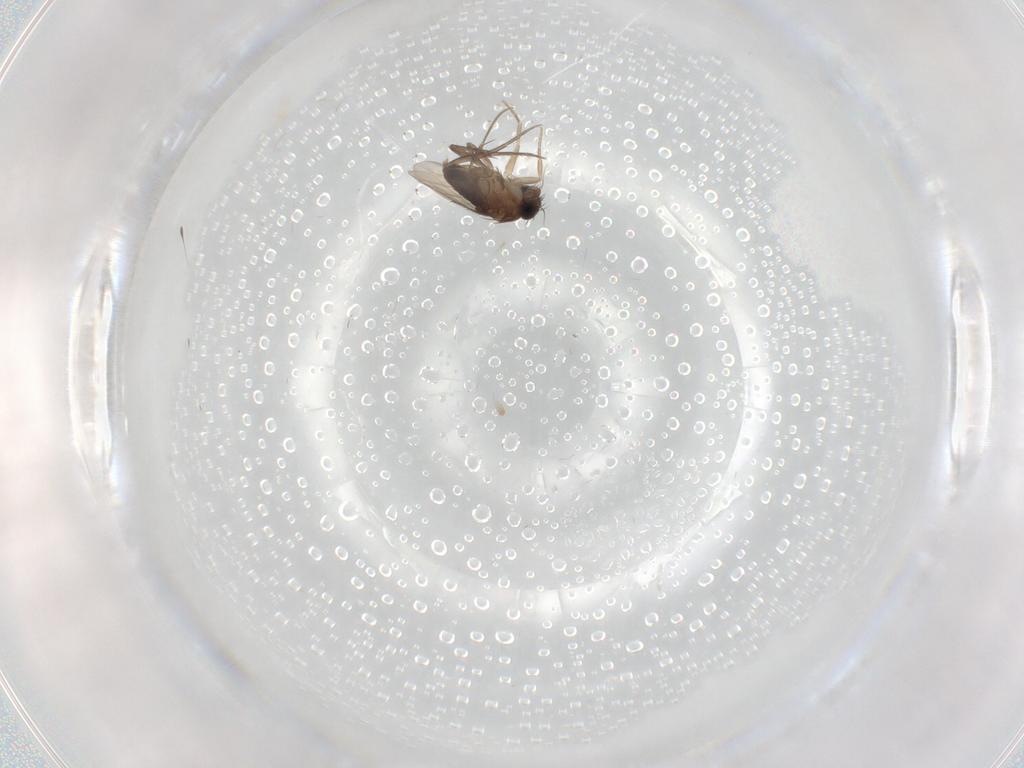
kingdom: Animalia
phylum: Arthropoda
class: Insecta
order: Diptera
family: Phoridae
